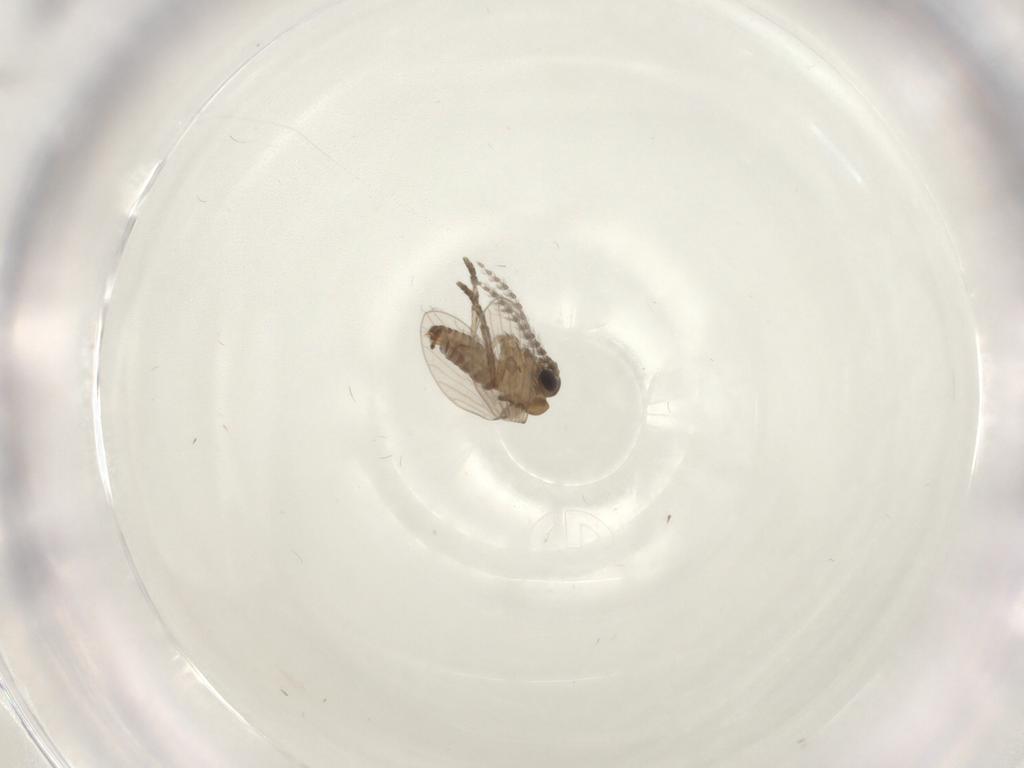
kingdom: Animalia
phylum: Arthropoda
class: Insecta
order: Diptera
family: Psychodidae
